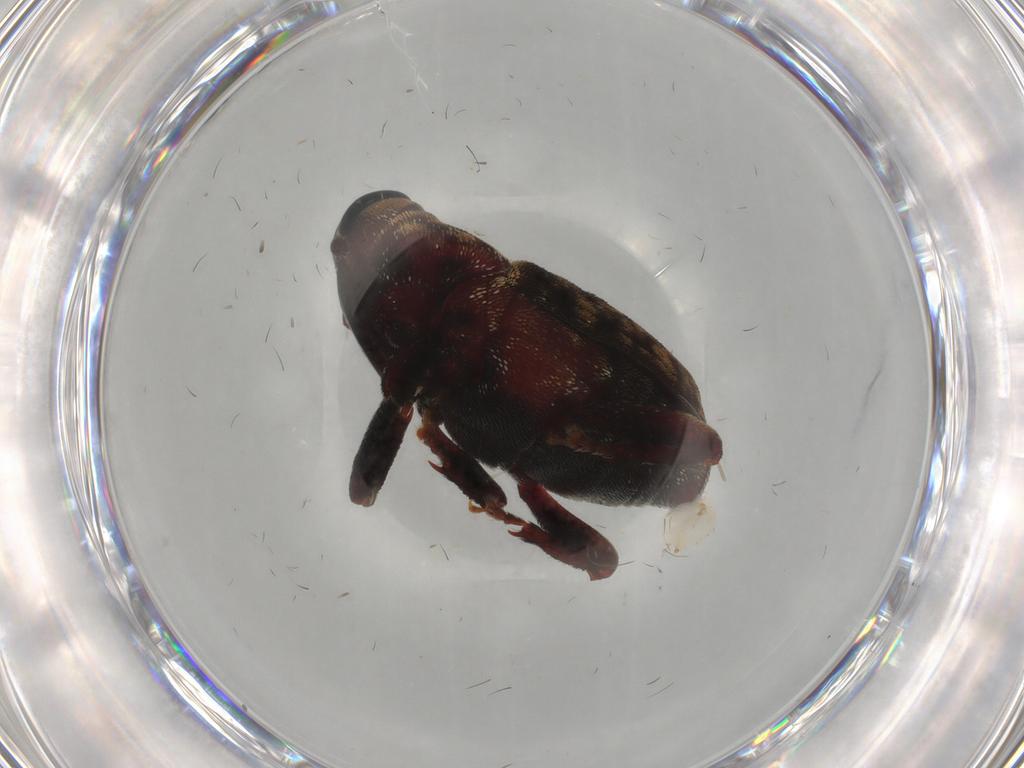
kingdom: Animalia
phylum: Arthropoda
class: Insecta
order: Coleoptera
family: Curculionidae
